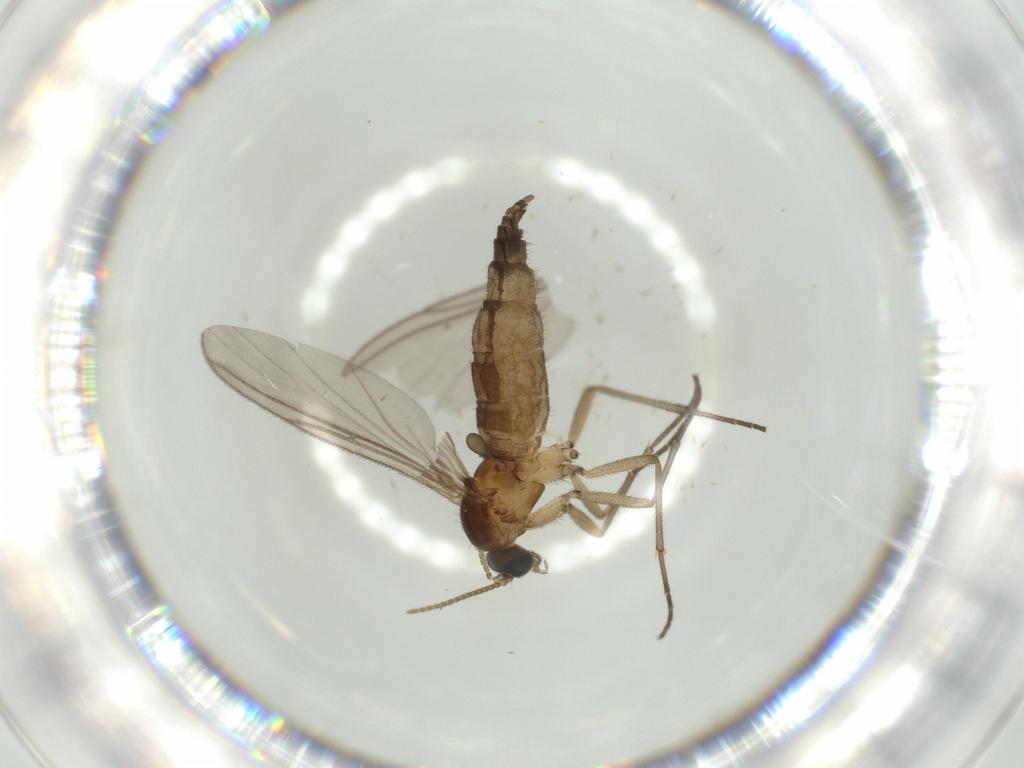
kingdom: Animalia
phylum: Arthropoda
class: Insecta
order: Diptera
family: Sciaridae
